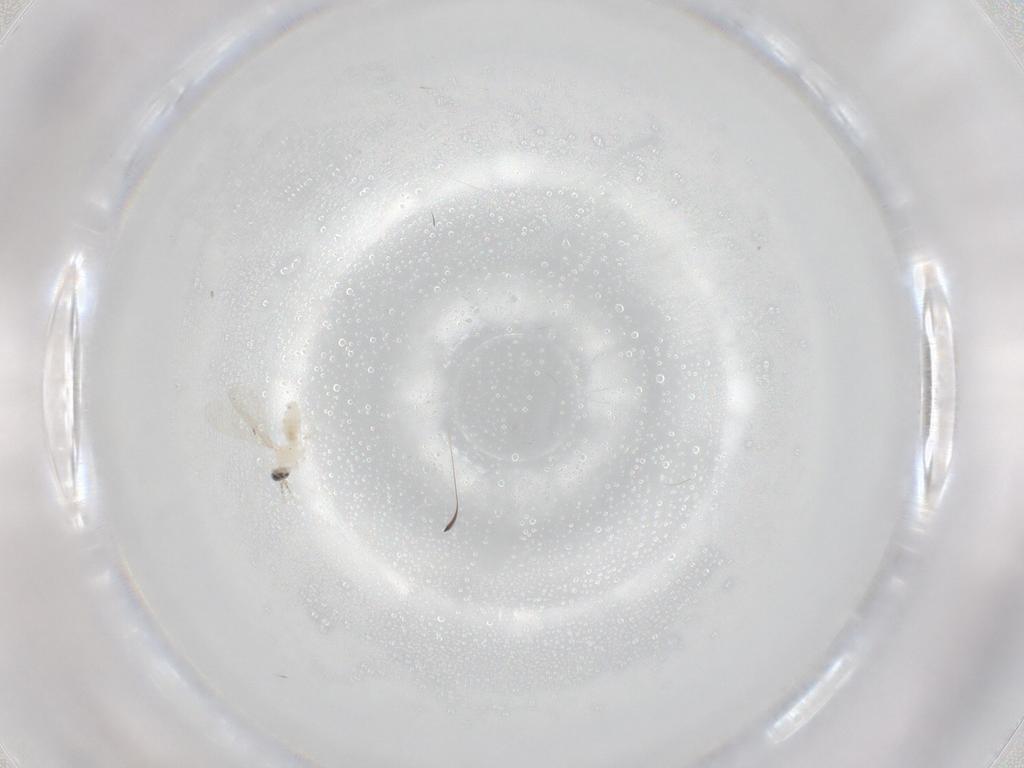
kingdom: Animalia
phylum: Arthropoda
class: Insecta
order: Diptera
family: Cecidomyiidae
